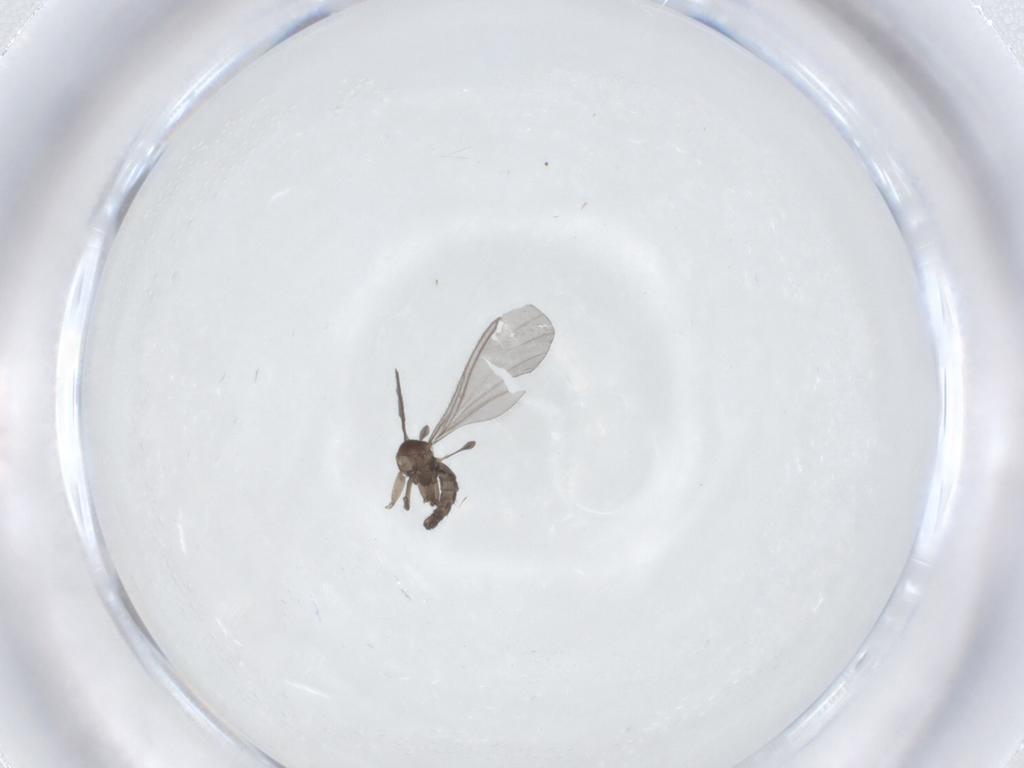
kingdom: Animalia
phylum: Arthropoda
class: Insecta
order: Diptera
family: Sciaridae
